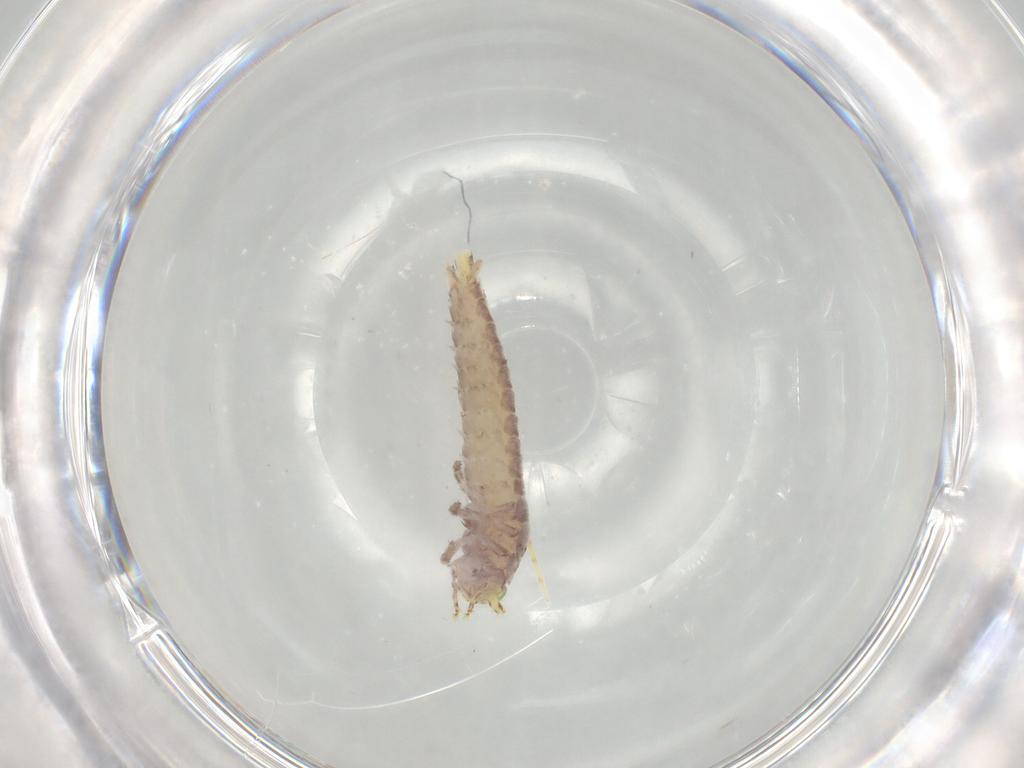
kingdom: Animalia
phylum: Arthropoda
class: Insecta
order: Archaeognatha
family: Machilidae
